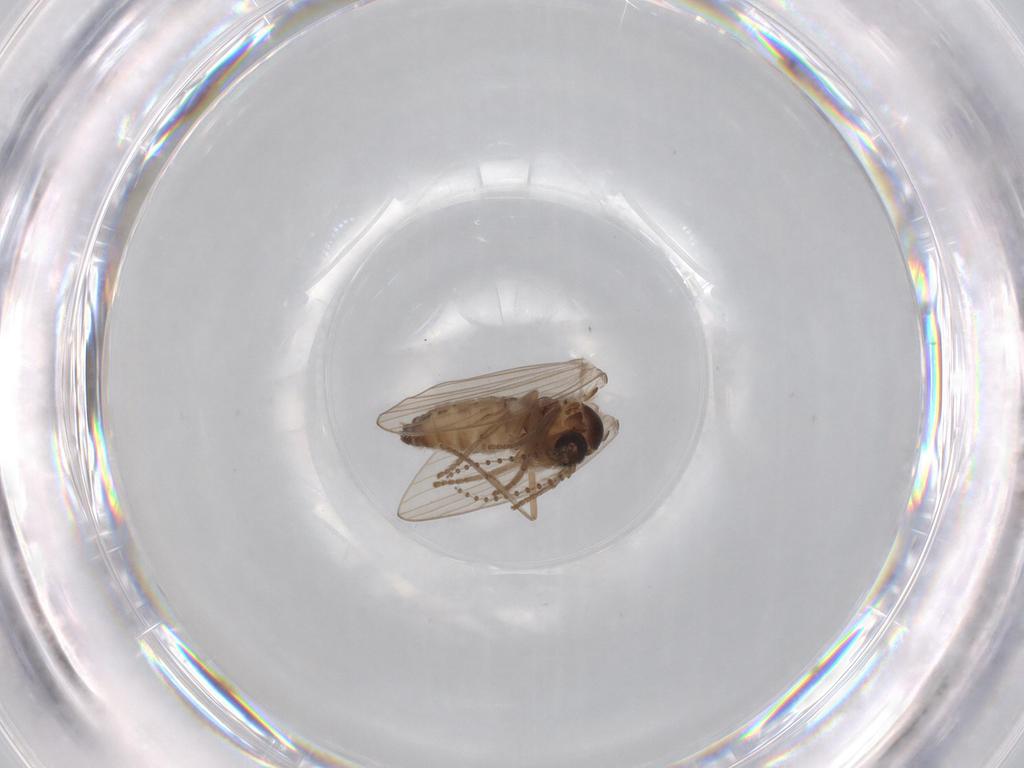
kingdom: Animalia
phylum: Arthropoda
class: Insecta
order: Diptera
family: Psychodidae
